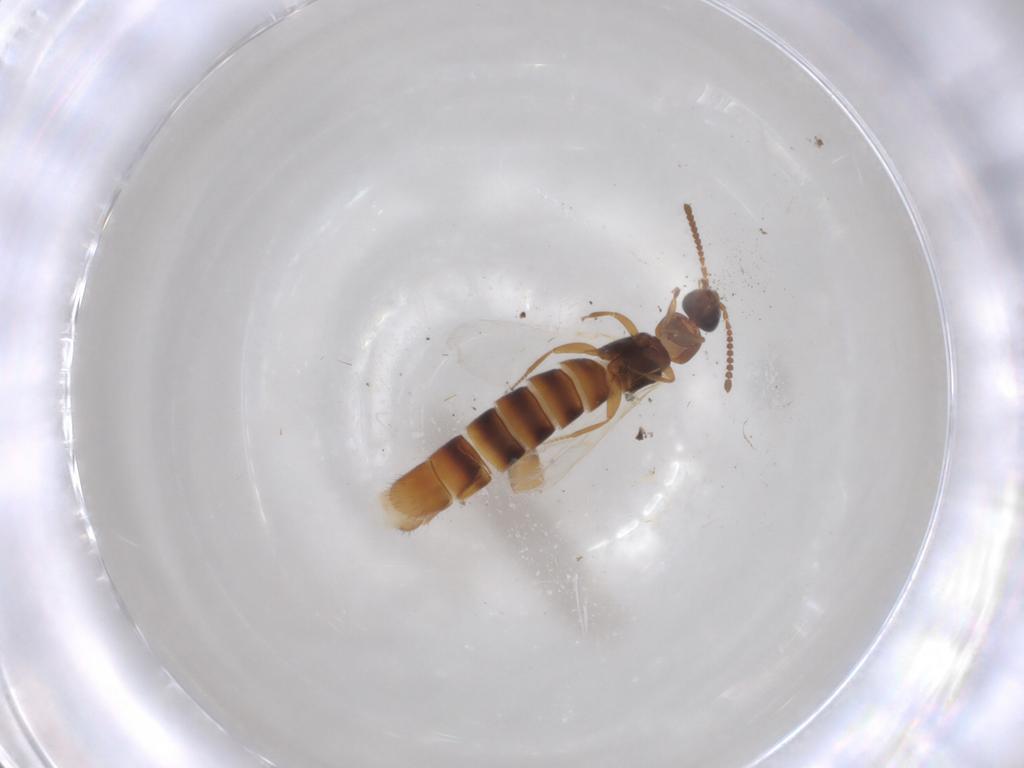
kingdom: Animalia
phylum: Arthropoda
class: Insecta
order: Coleoptera
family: Staphylinidae
